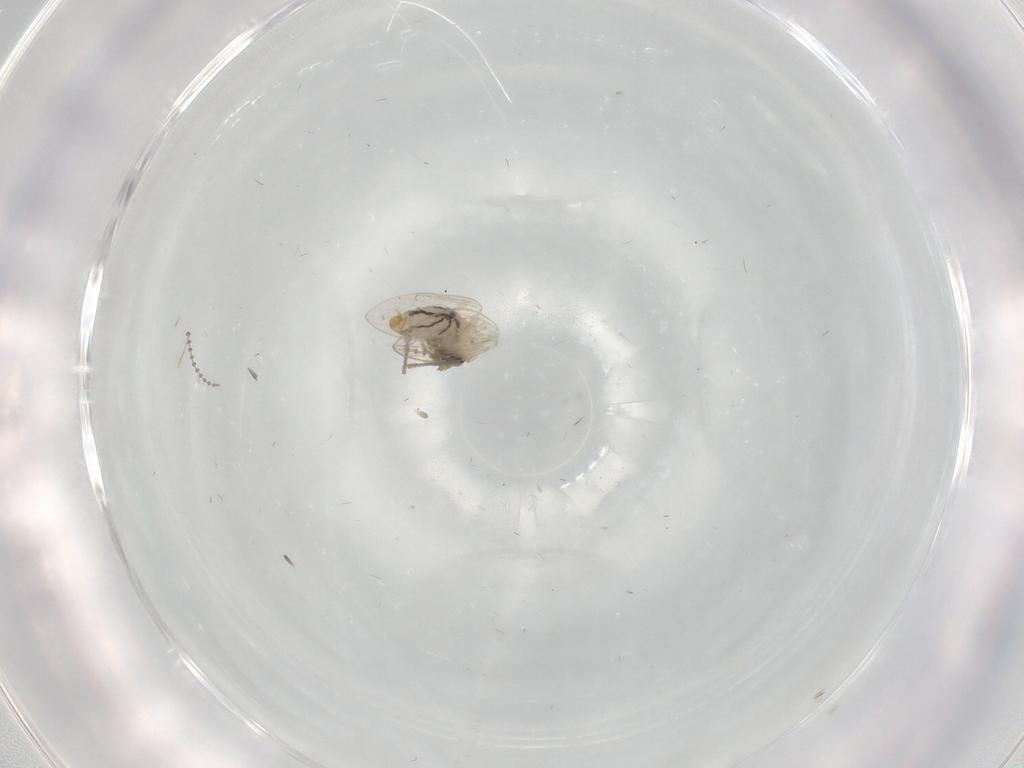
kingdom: Animalia
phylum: Arthropoda
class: Insecta
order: Diptera
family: Psychodidae
